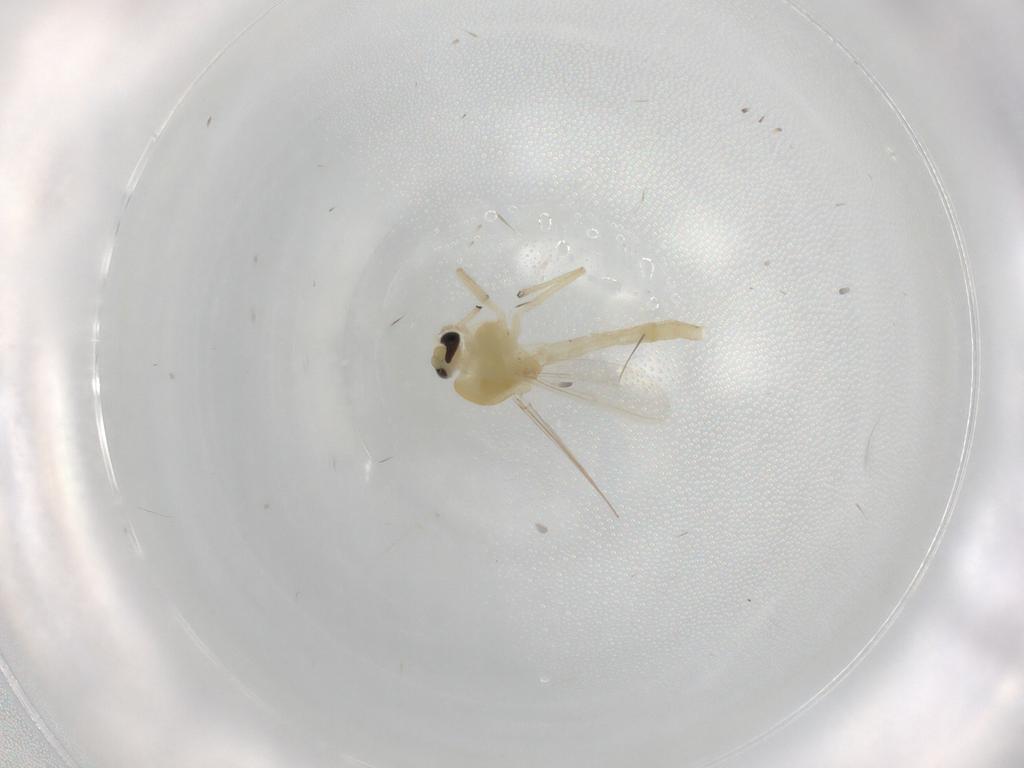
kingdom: Animalia
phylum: Arthropoda
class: Insecta
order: Diptera
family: Chironomidae
